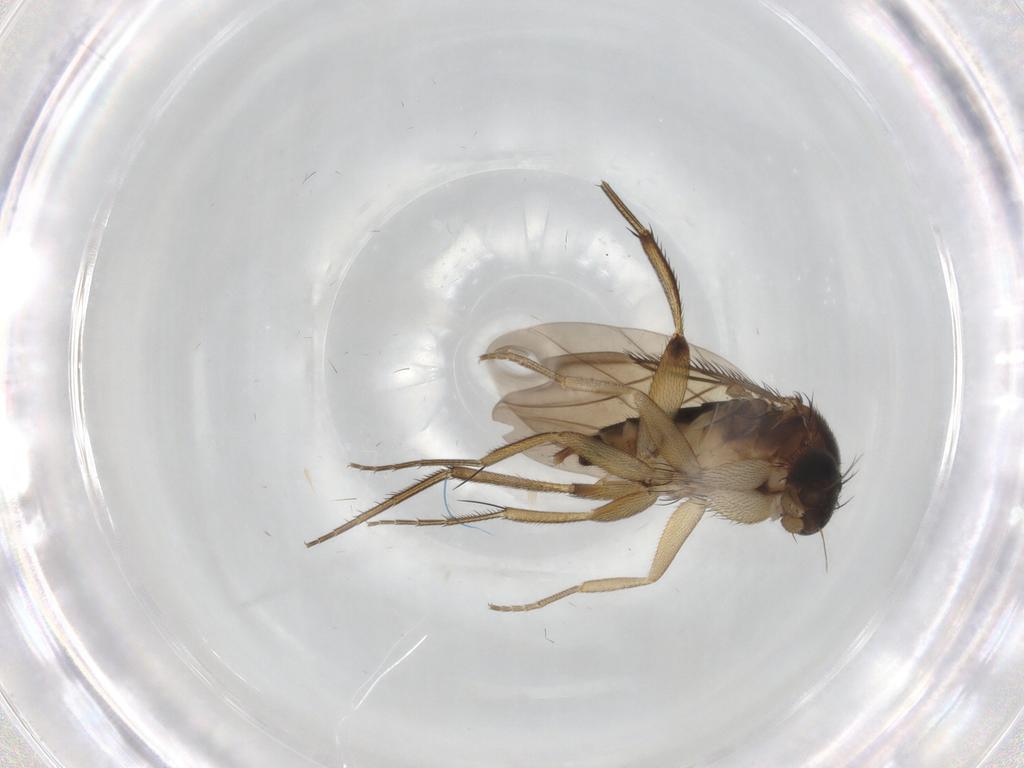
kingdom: Animalia
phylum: Arthropoda
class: Insecta
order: Diptera
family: Phoridae
